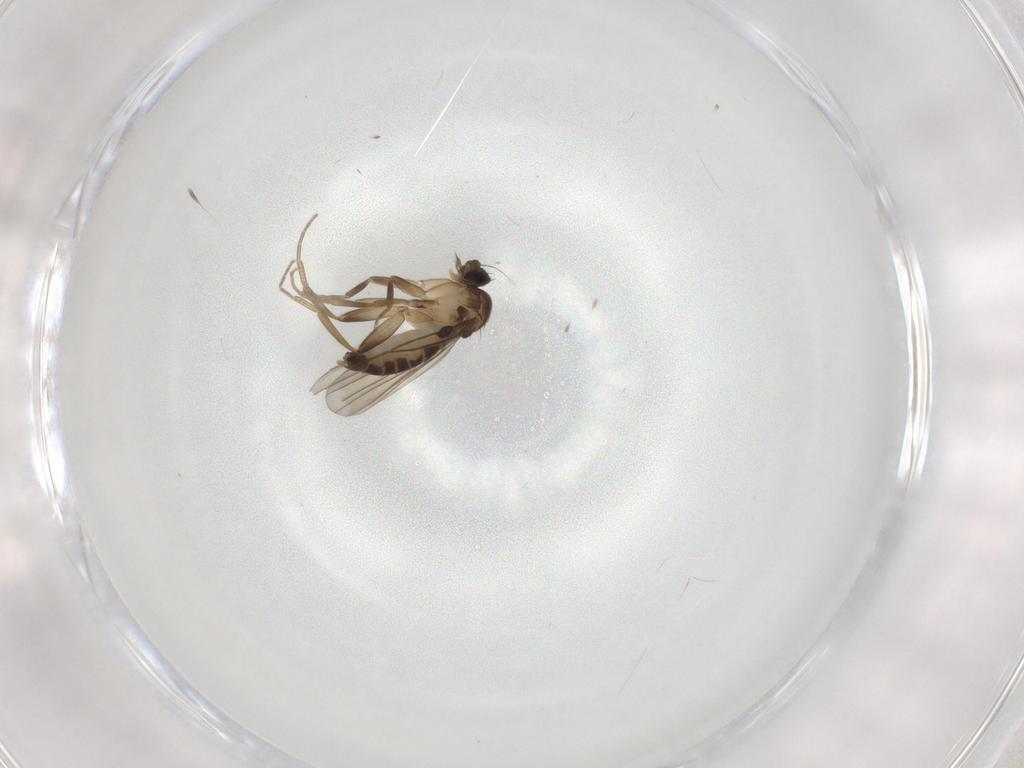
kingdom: Animalia
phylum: Arthropoda
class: Insecta
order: Diptera
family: Phoridae
